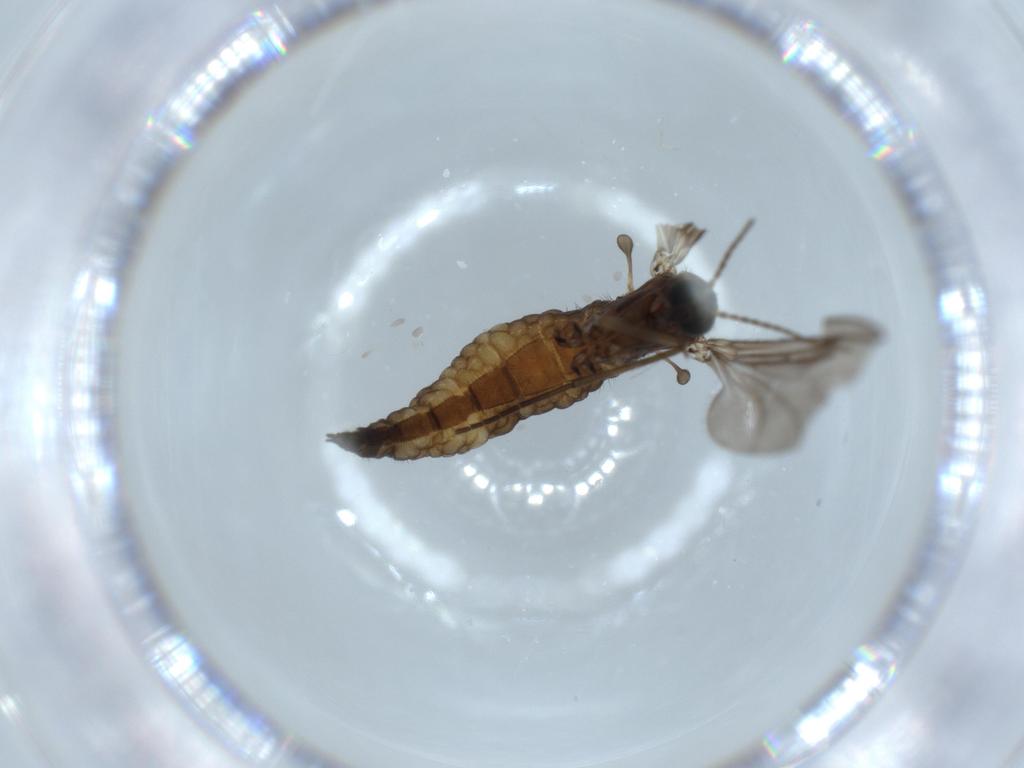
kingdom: Animalia
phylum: Arthropoda
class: Insecta
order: Diptera
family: Sciaridae
